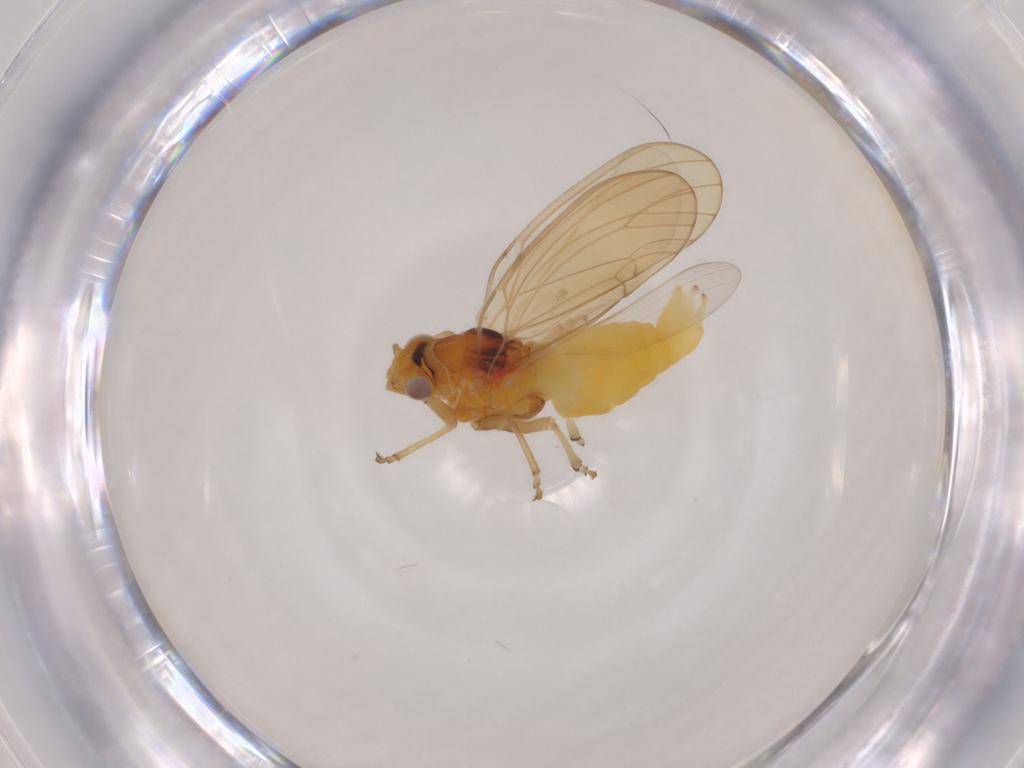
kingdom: Animalia
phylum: Arthropoda
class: Insecta
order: Hemiptera
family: Psylloidea_incertae_sedis
